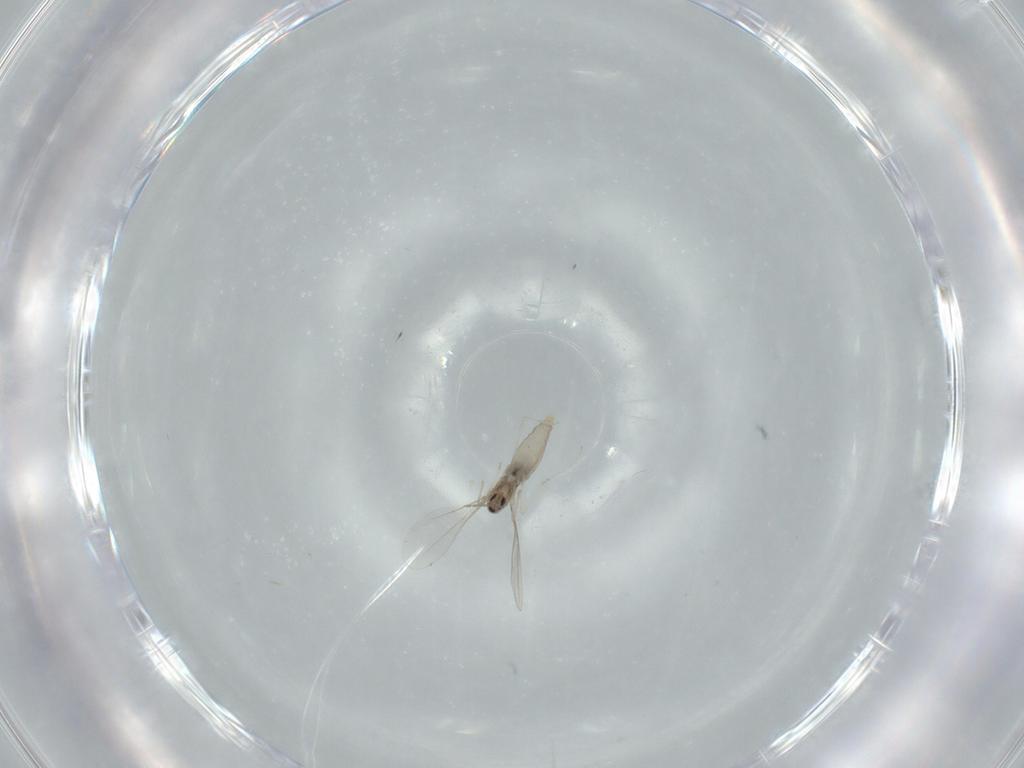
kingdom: Animalia
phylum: Arthropoda
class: Insecta
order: Diptera
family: Cecidomyiidae
